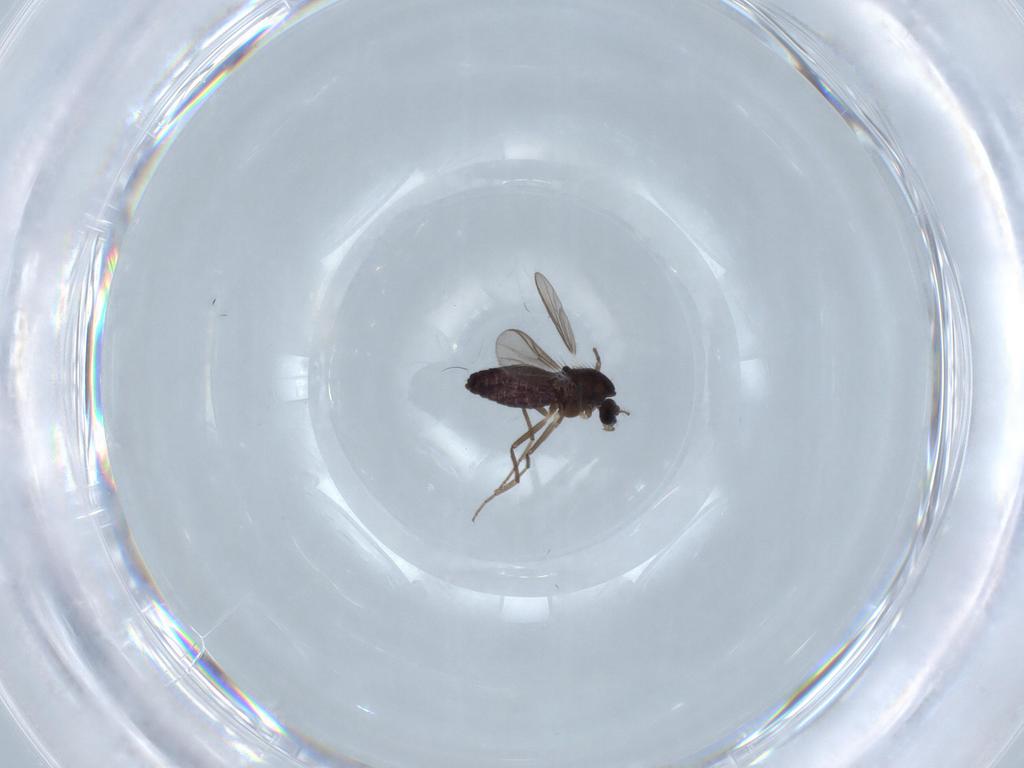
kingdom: Animalia
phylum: Arthropoda
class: Insecta
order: Diptera
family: Chironomidae
